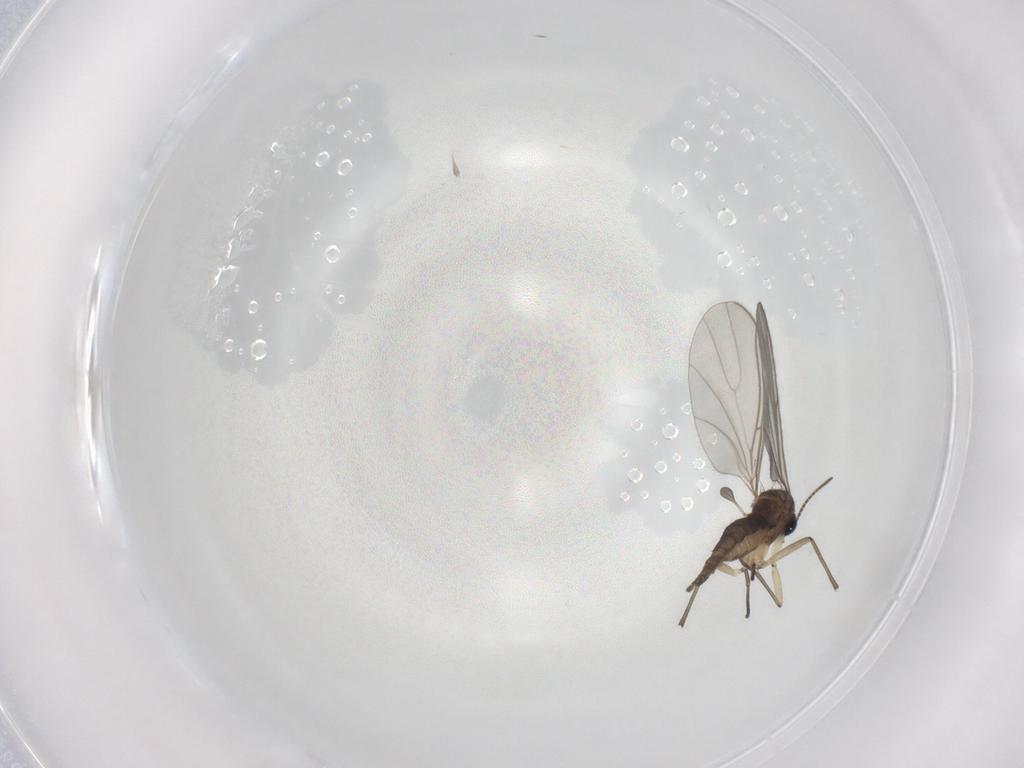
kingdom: Animalia
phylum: Arthropoda
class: Insecta
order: Diptera
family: Sciaridae
